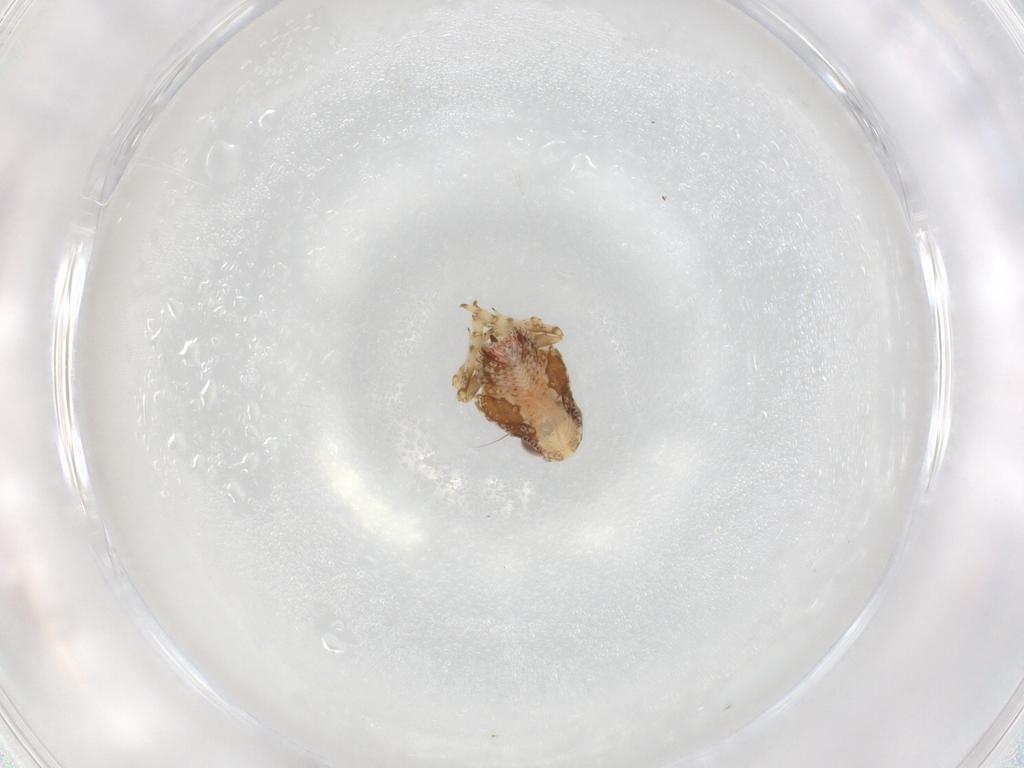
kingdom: Animalia
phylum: Arthropoda
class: Insecta
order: Hemiptera
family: Nogodinidae
